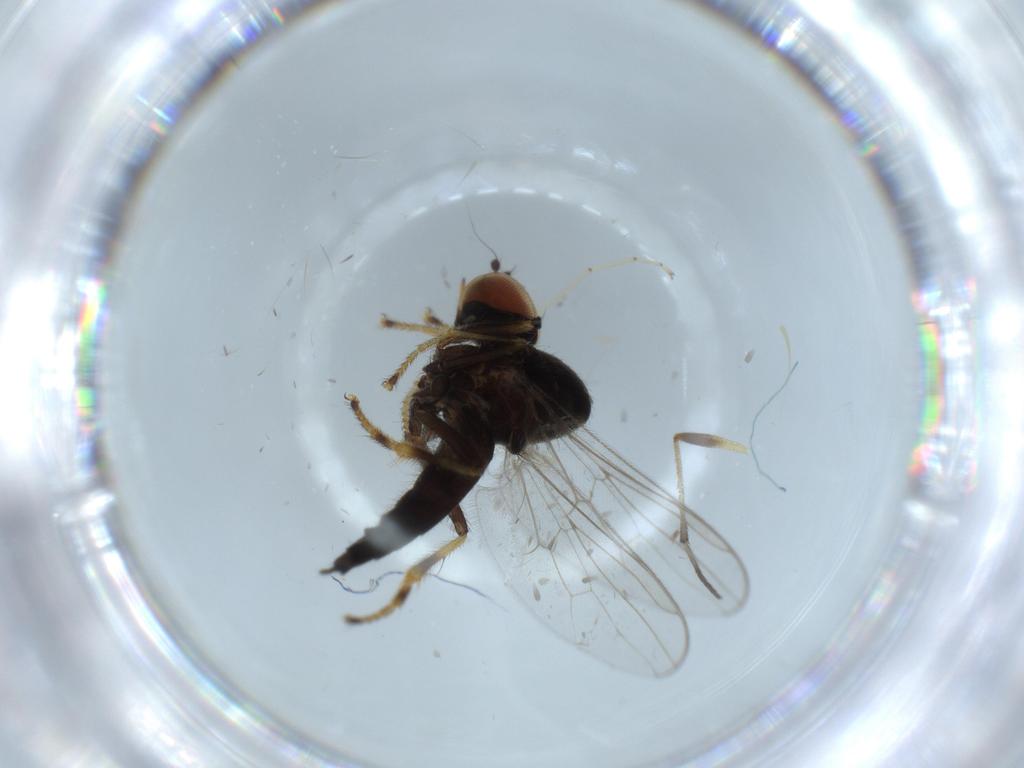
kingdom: Animalia
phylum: Arthropoda
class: Insecta
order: Diptera
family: Hybotidae
